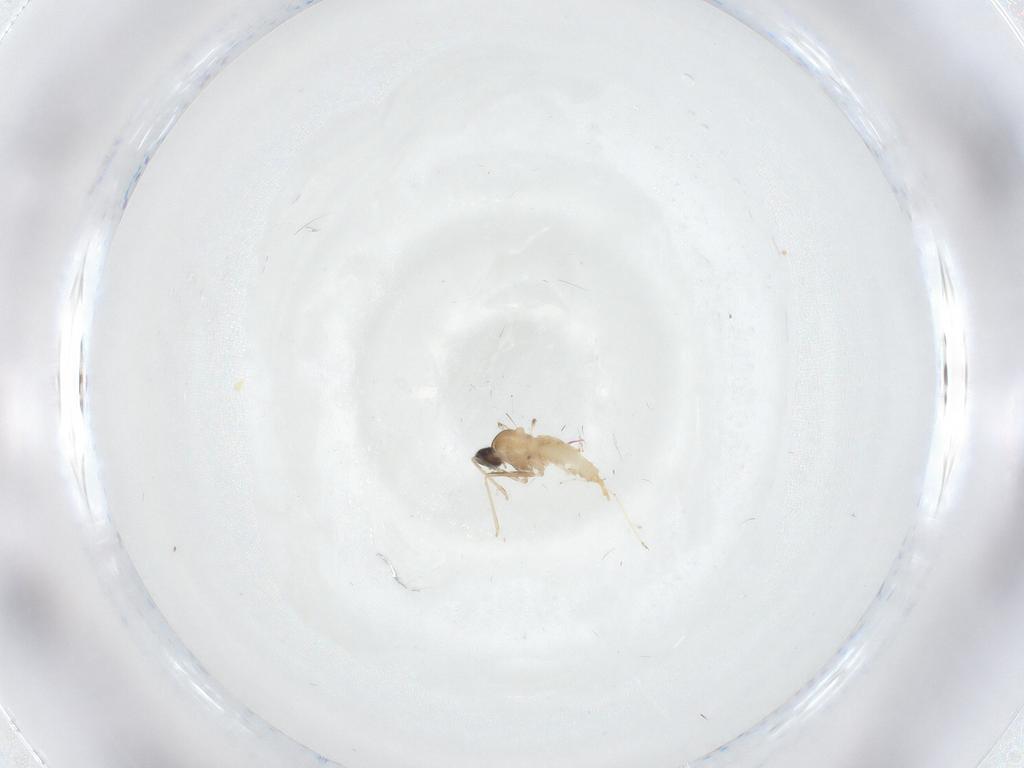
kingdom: Animalia
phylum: Arthropoda
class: Insecta
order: Diptera
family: Cecidomyiidae
